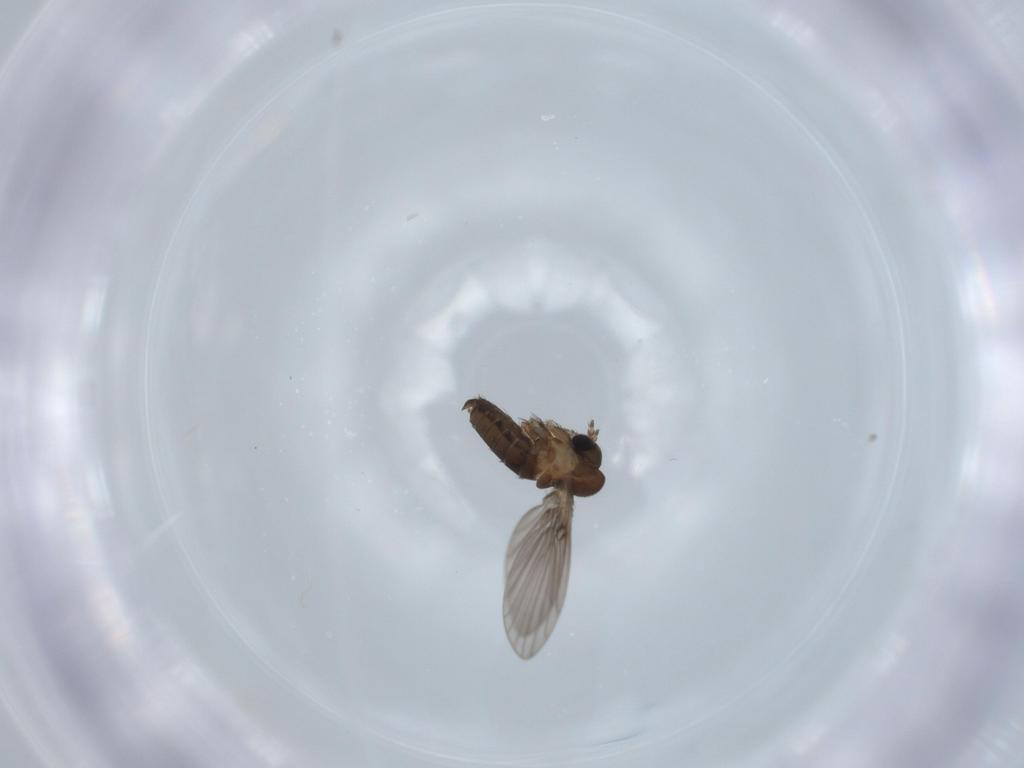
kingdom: Animalia
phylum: Arthropoda
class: Insecta
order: Diptera
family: Ceratopogonidae
